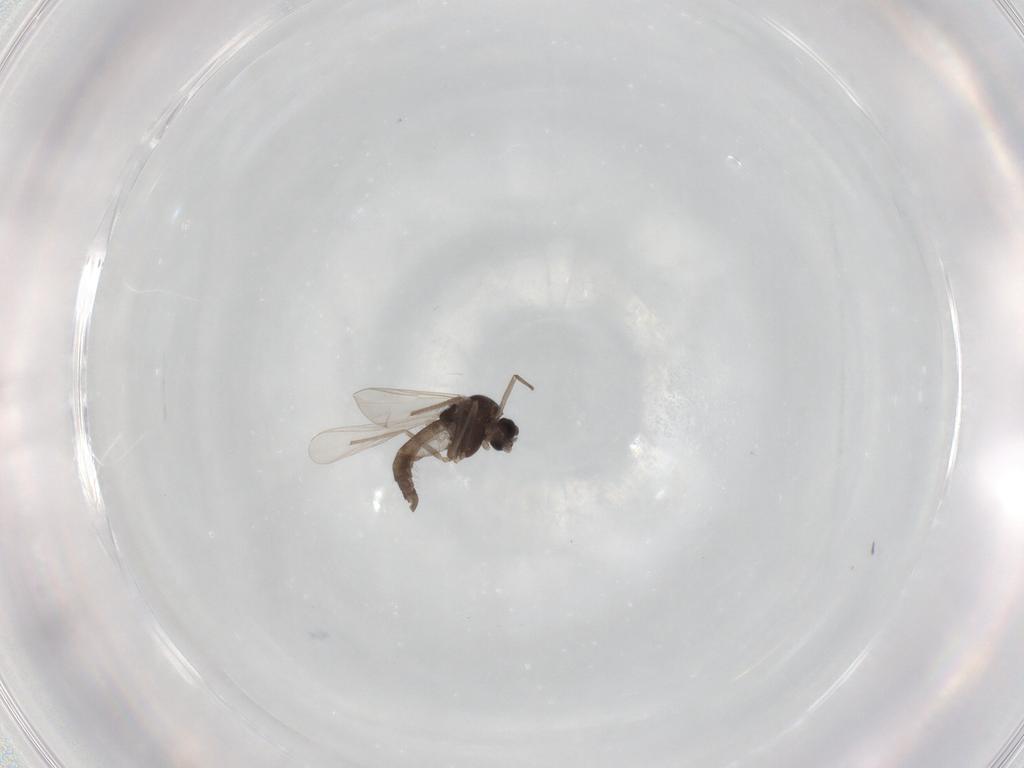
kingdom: Animalia
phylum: Arthropoda
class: Insecta
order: Diptera
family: Chironomidae
